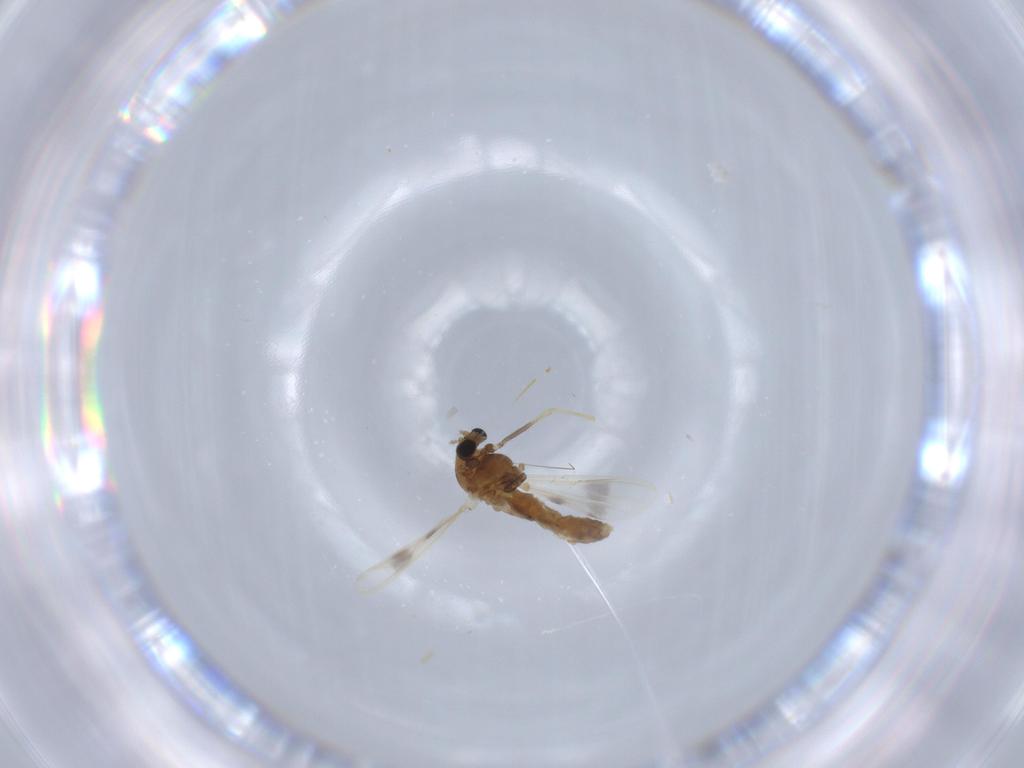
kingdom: Animalia
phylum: Arthropoda
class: Insecta
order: Diptera
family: Chironomidae
